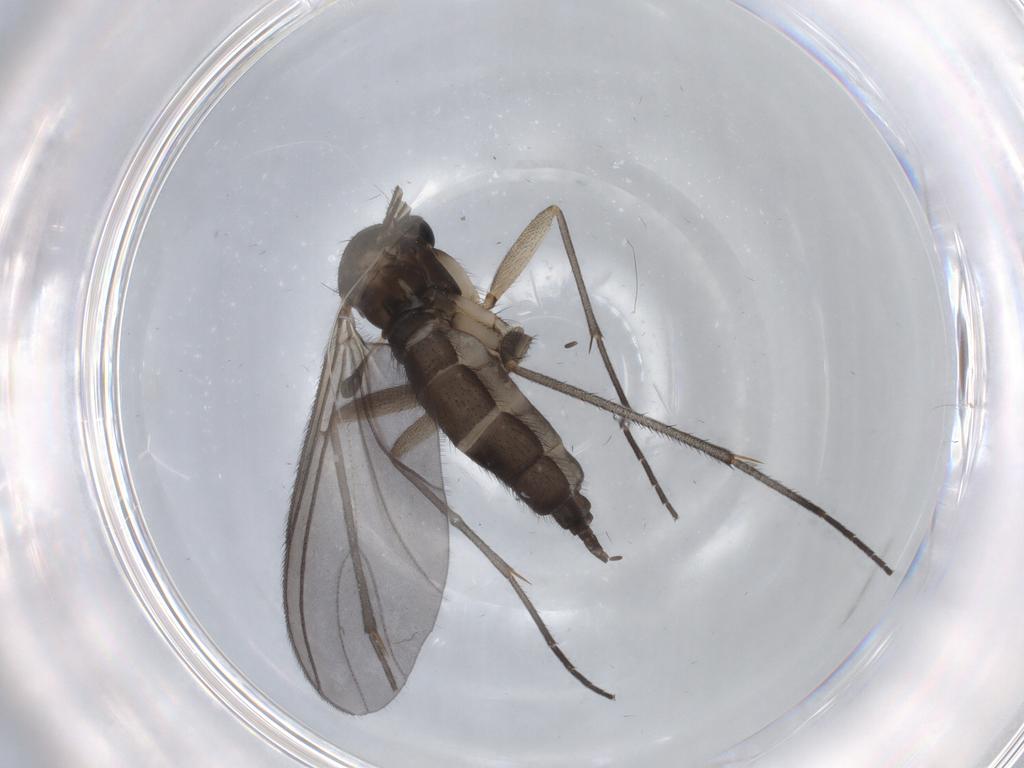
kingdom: Animalia
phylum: Arthropoda
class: Insecta
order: Diptera
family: Sciaridae
